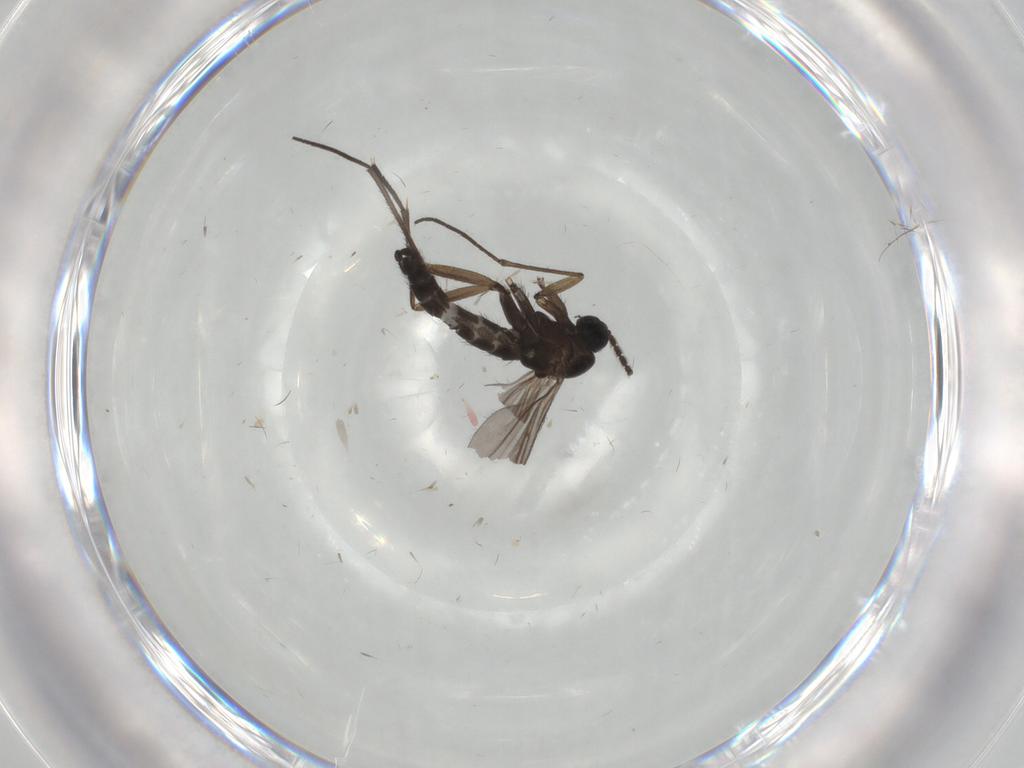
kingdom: Animalia
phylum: Arthropoda
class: Insecta
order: Diptera
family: Sciaridae
